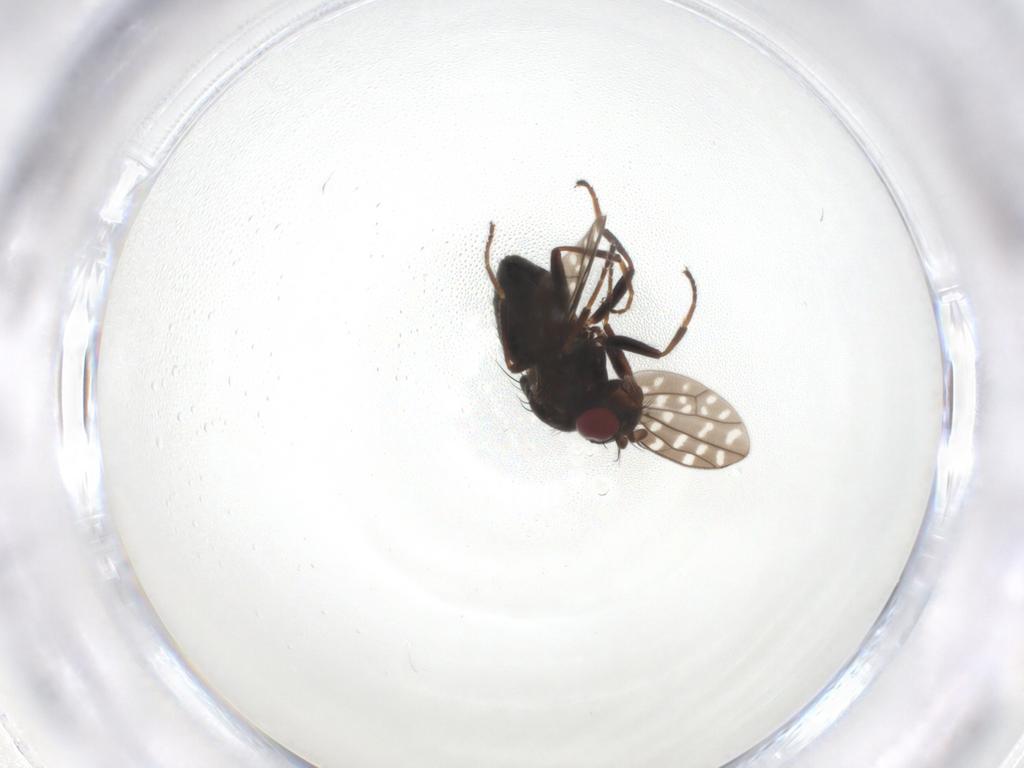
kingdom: Animalia
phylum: Arthropoda
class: Insecta
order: Diptera
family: Ephydridae
